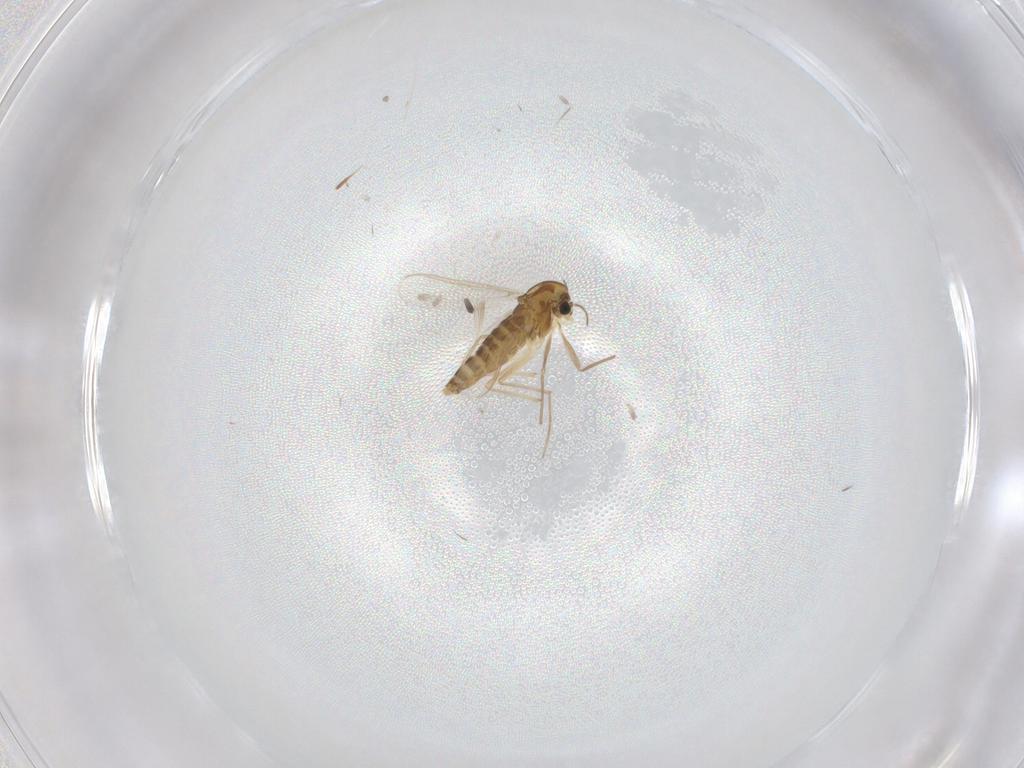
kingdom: Animalia
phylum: Arthropoda
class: Insecta
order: Diptera
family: Chironomidae
